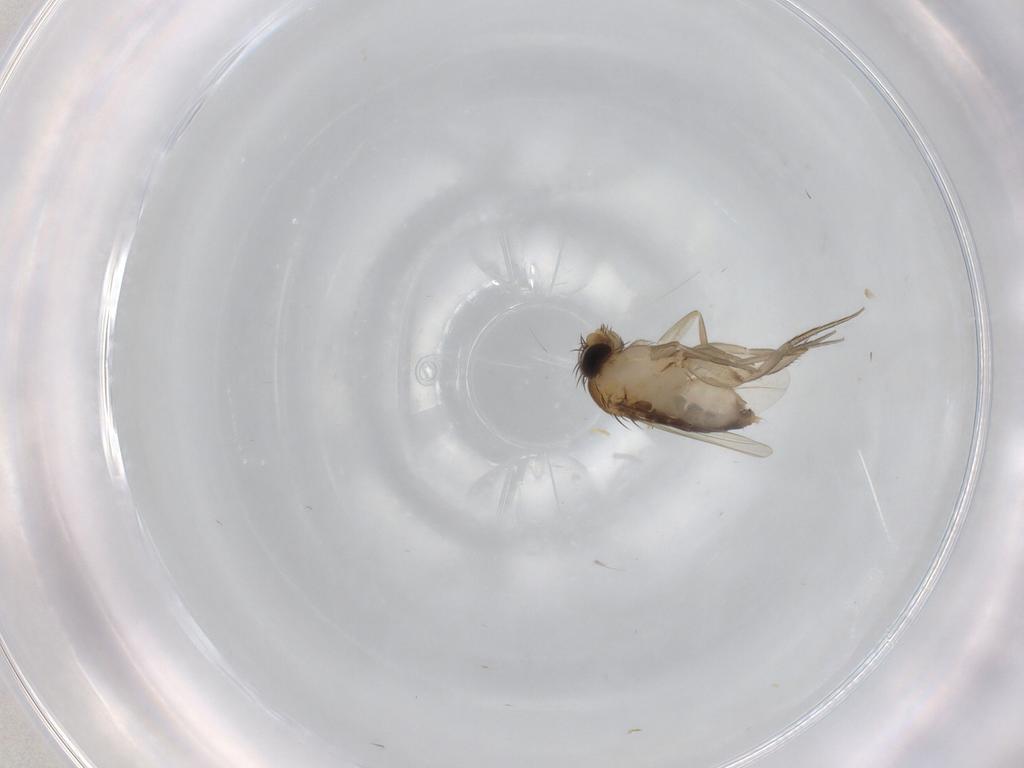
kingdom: Animalia
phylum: Arthropoda
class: Insecta
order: Diptera
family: Phoridae
